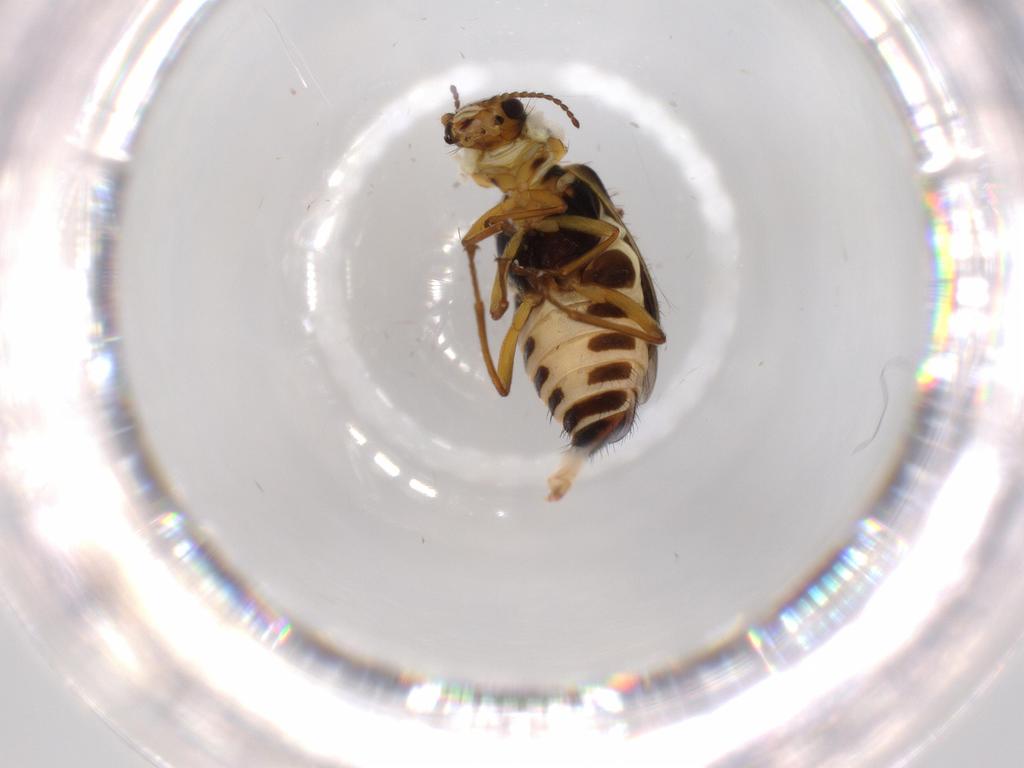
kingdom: Animalia
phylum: Arthropoda
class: Insecta
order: Coleoptera
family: Melyridae
